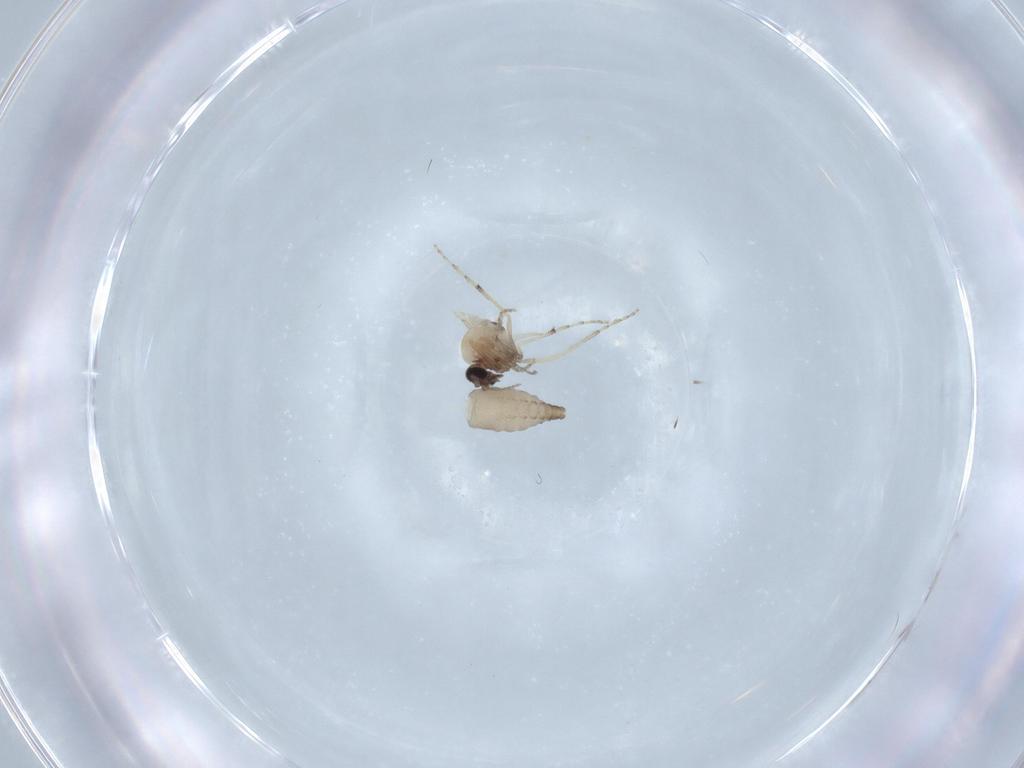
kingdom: Animalia
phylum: Arthropoda
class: Insecta
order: Diptera
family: Ceratopogonidae
